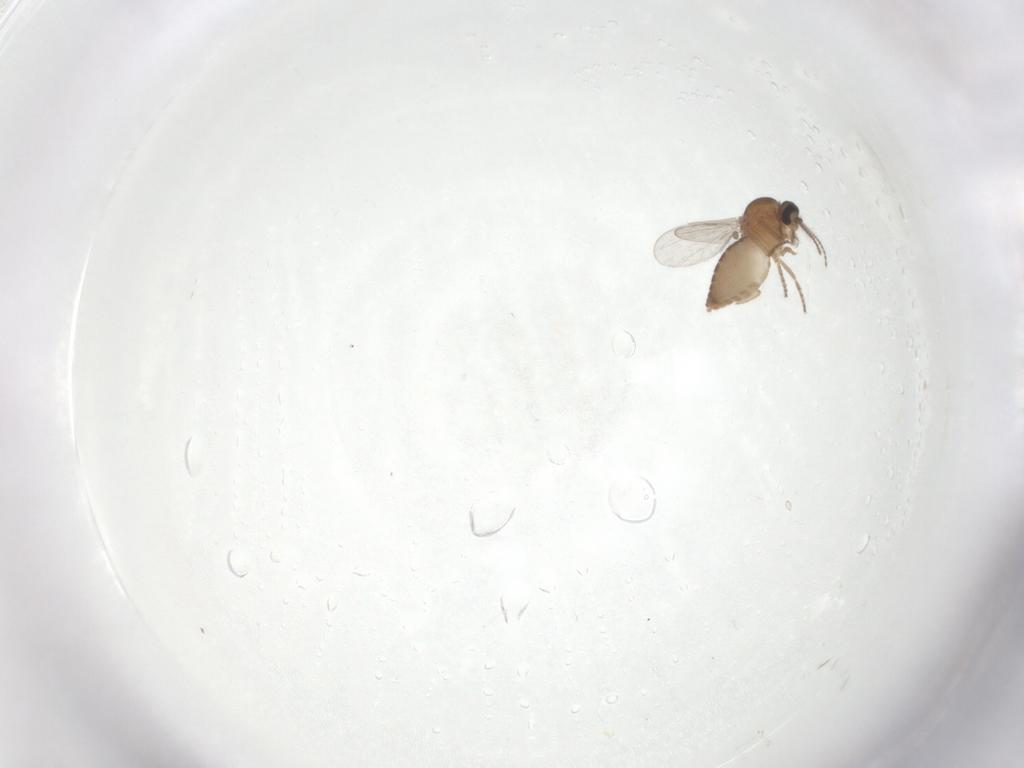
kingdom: Animalia
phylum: Arthropoda
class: Insecta
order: Diptera
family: Ceratopogonidae
